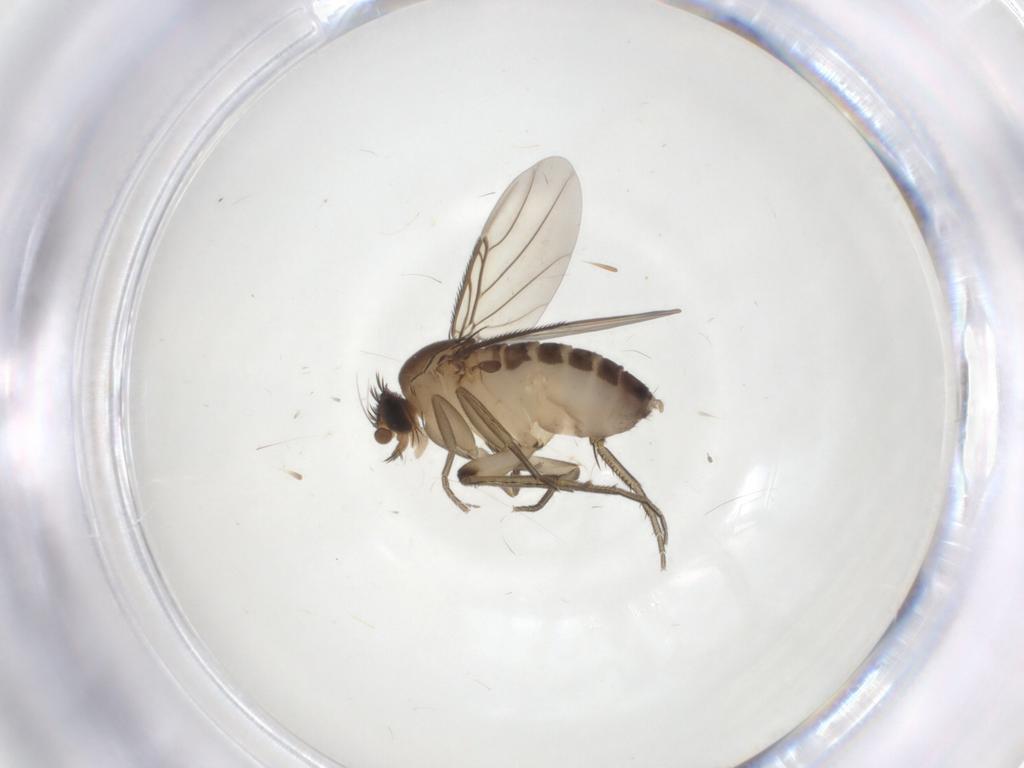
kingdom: Animalia
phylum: Arthropoda
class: Insecta
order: Diptera
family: Phoridae
